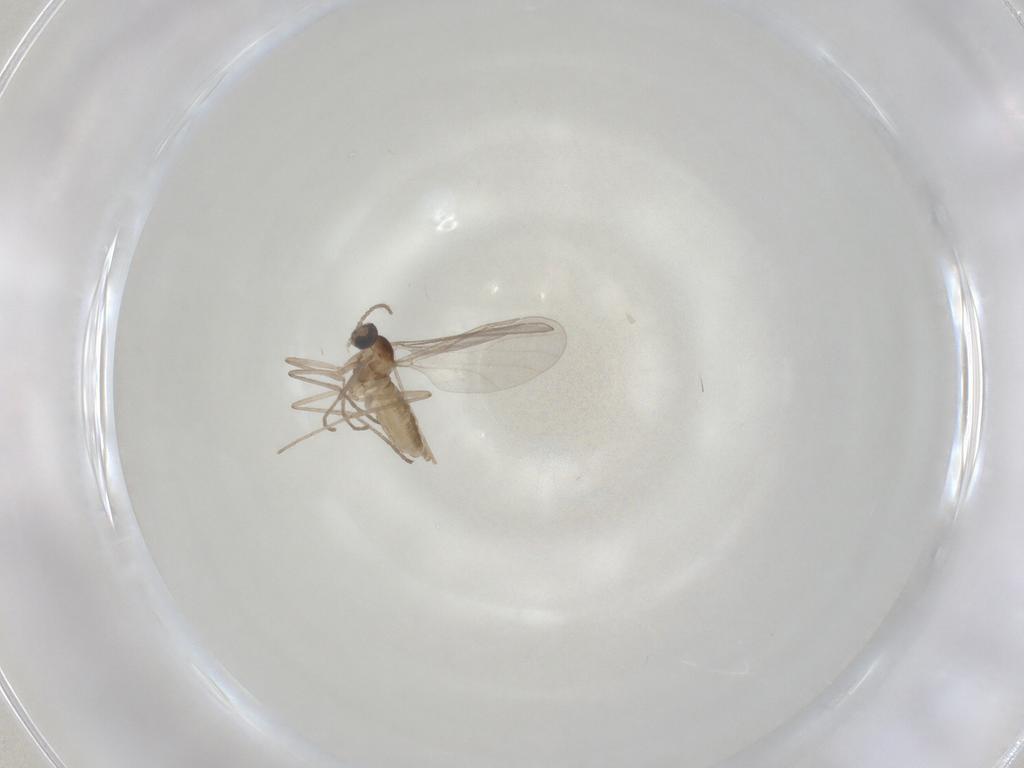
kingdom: Animalia
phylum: Arthropoda
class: Insecta
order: Diptera
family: Cecidomyiidae
